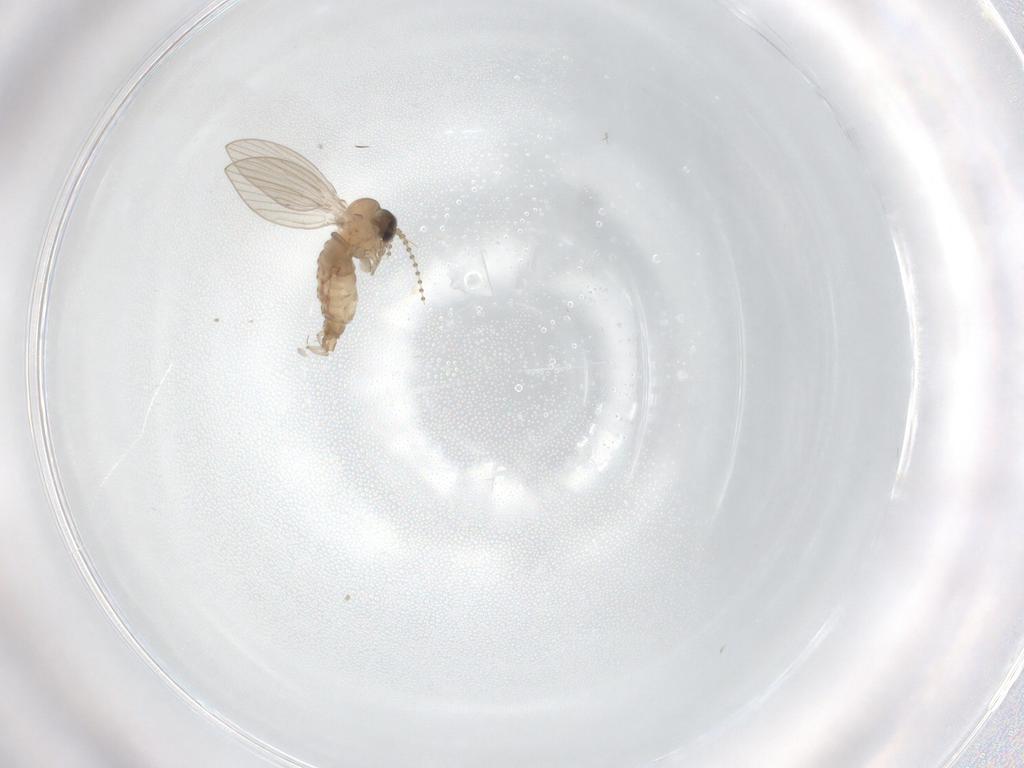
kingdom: Animalia
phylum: Arthropoda
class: Insecta
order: Diptera
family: Psychodidae
